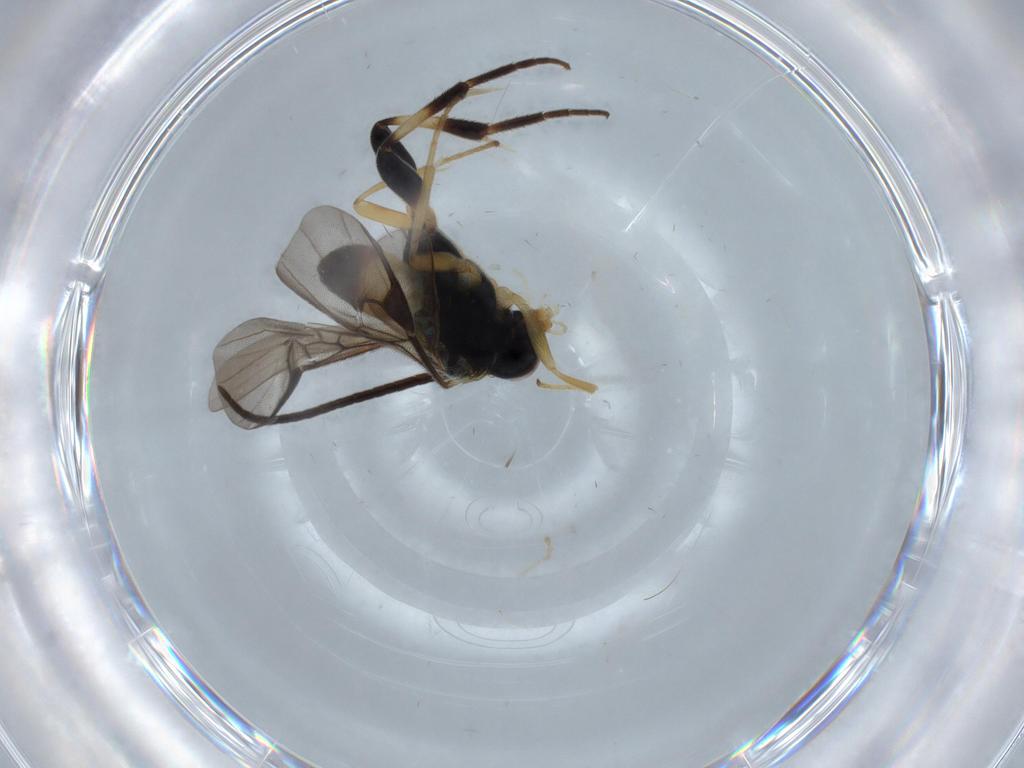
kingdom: Animalia
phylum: Arthropoda
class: Insecta
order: Hymenoptera
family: Braconidae
